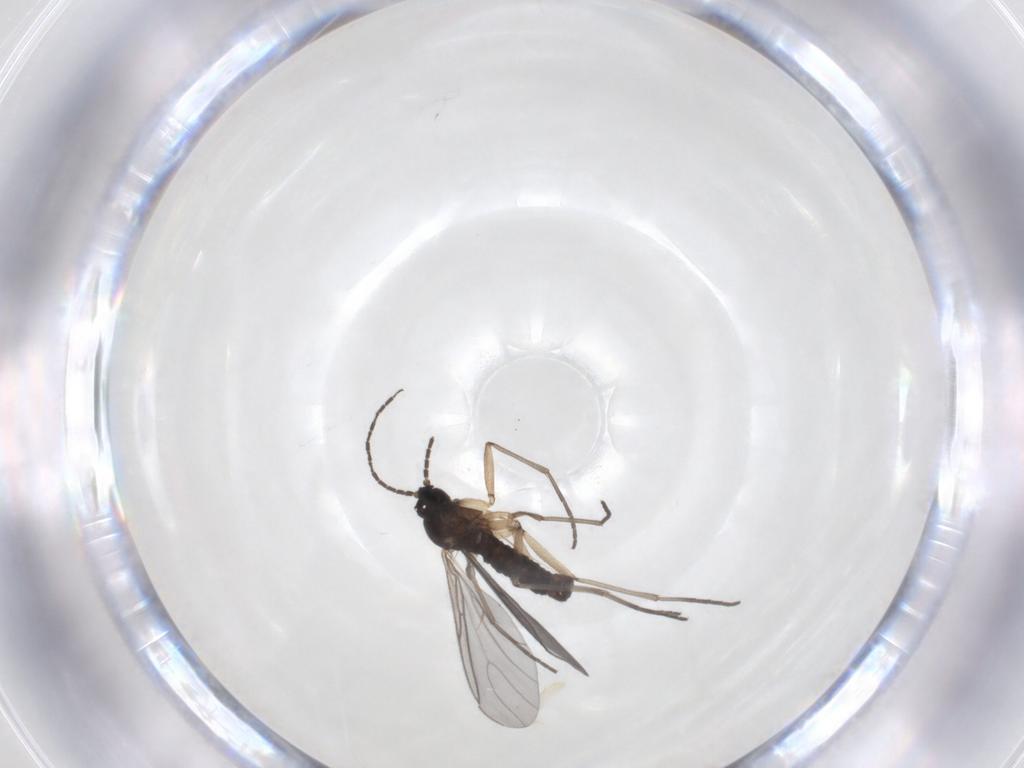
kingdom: Animalia
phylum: Arthropoda
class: Insecta
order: Diptera
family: Sciaridae
